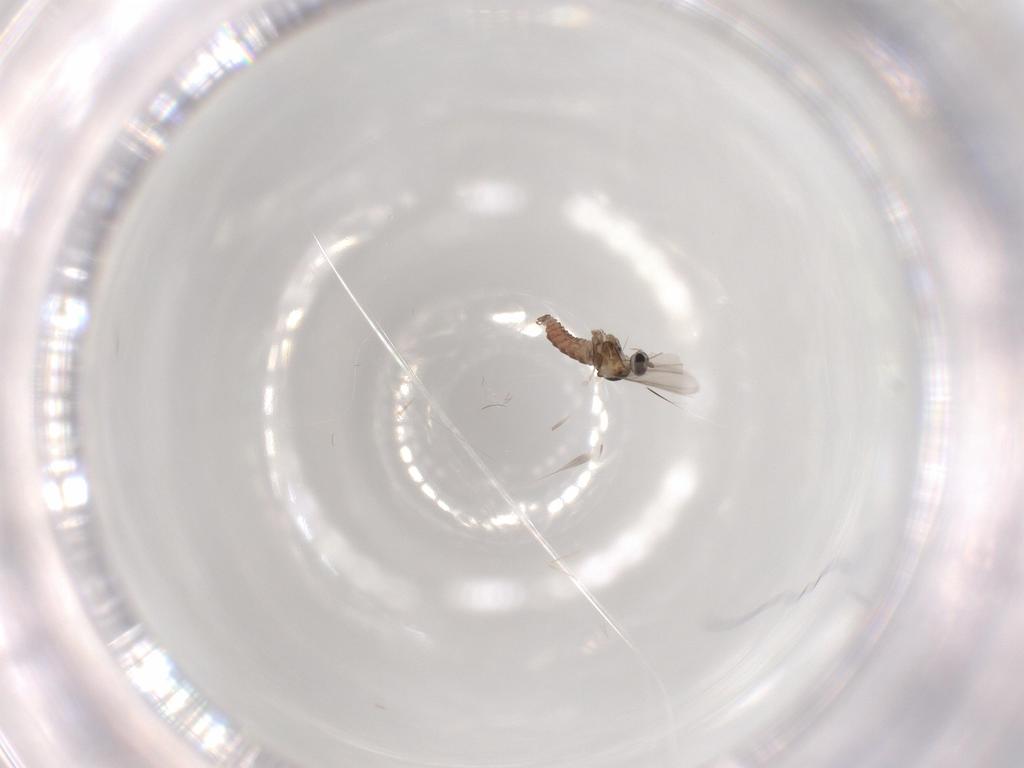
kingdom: Animalia
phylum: Arthropoda
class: Insecta
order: Diptera
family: Cecidomyiidae
